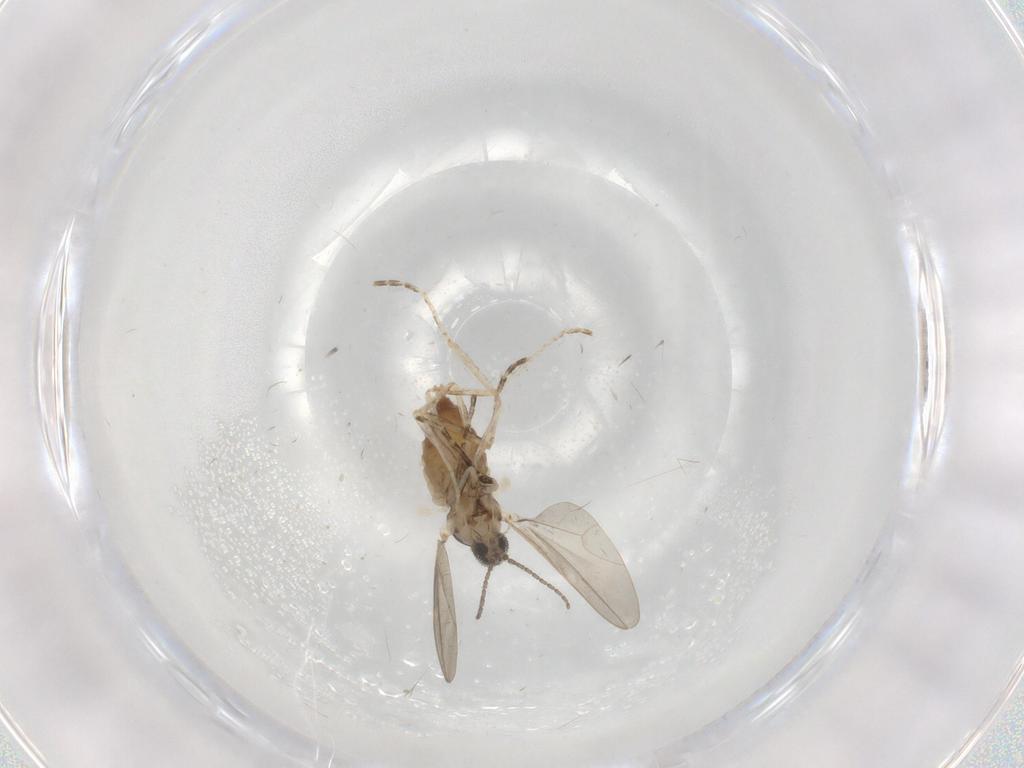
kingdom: Animalia
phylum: Arthropoda
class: Insecta
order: Diptera
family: Cecidomyiidae
